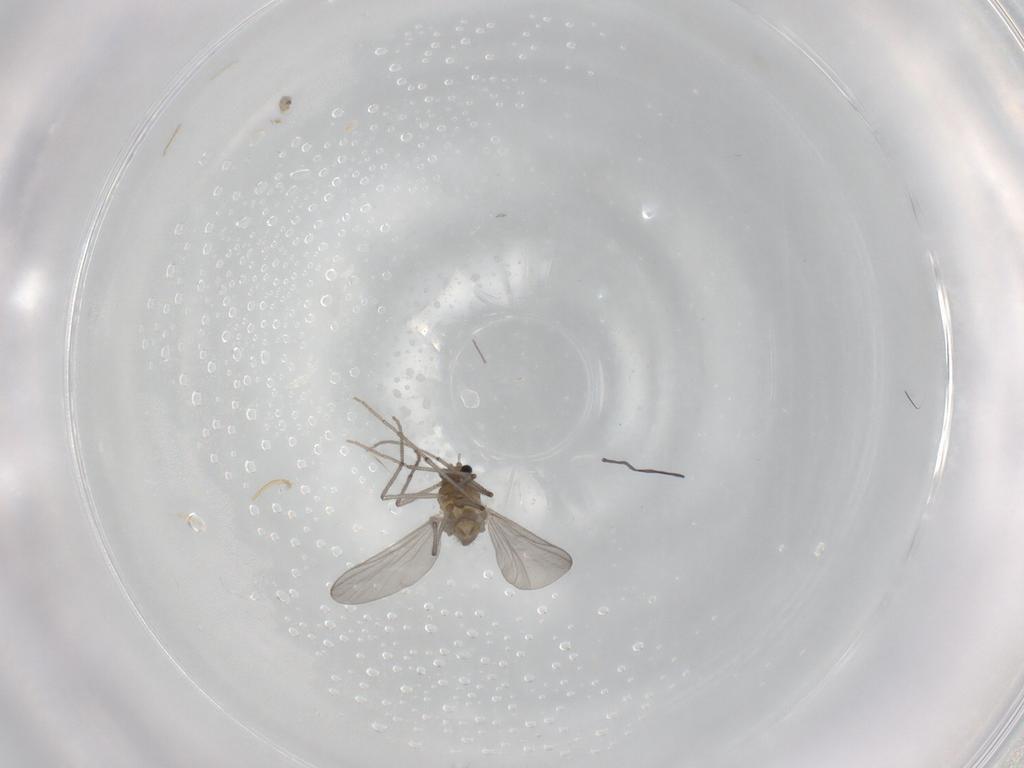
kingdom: Animalia
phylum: Arthropoda
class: Insecta
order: Diptera
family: Chironomidae
